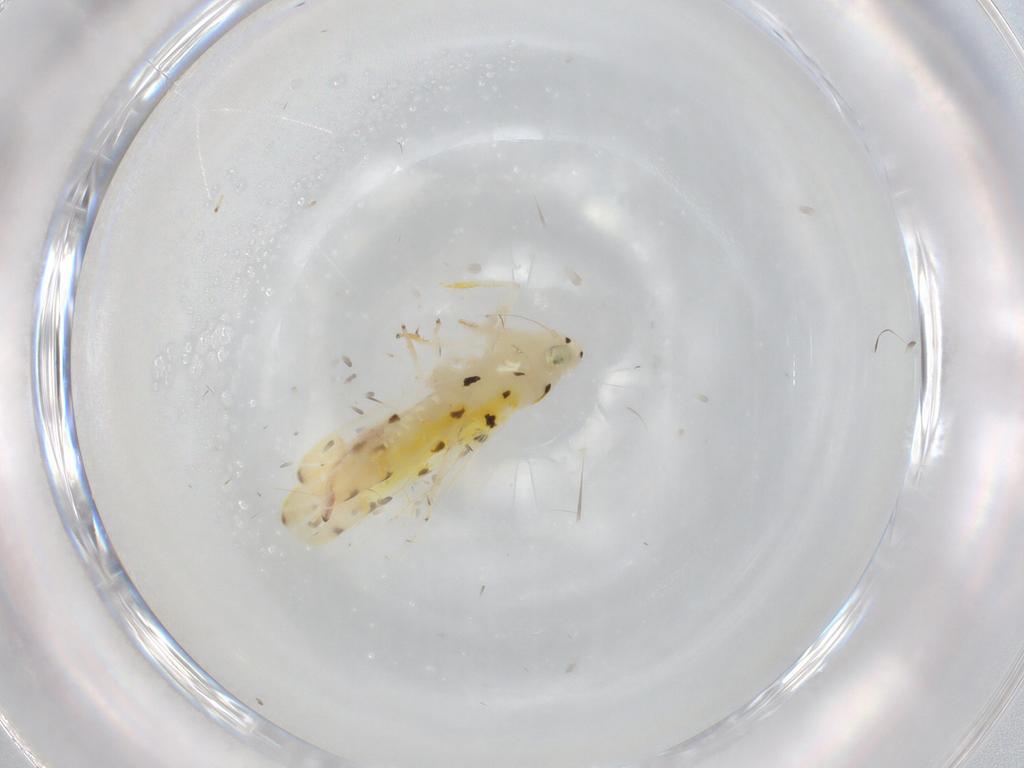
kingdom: Animalia
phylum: Arthropoda
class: Insecta
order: Hemiptera
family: Cicadellidae
